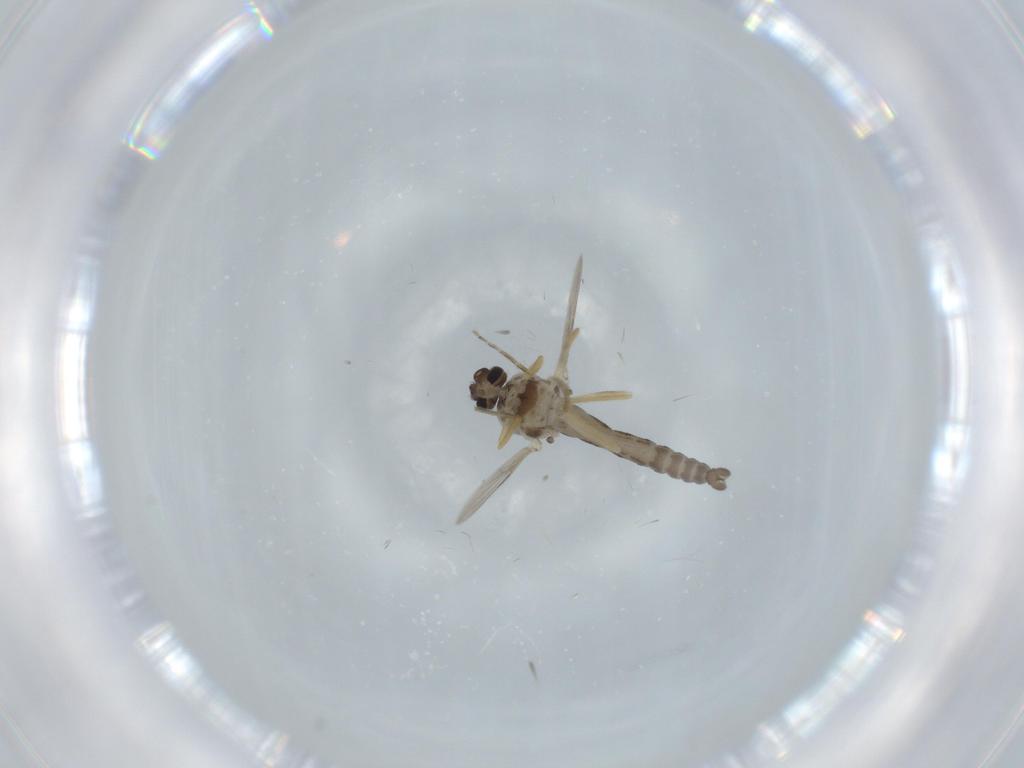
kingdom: Animalia
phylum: Arthropoda
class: Insecta
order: Diptera
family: Ceratopogonidae
